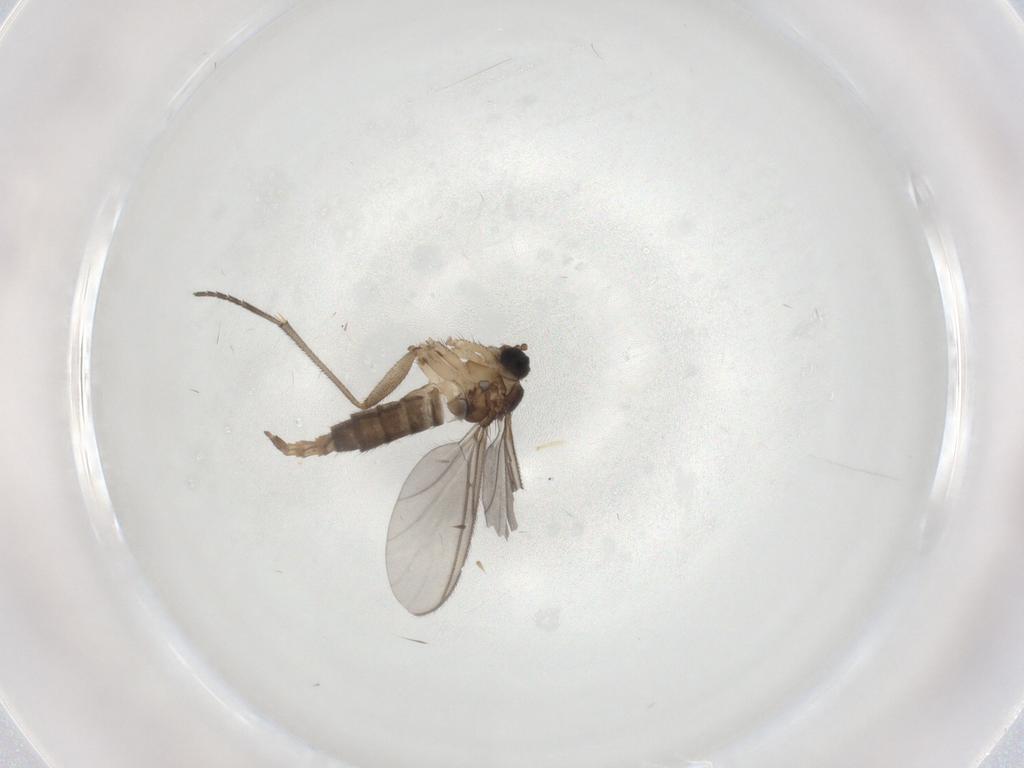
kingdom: Animalia
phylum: Arthropoda
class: Insecta
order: Diptera
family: Sciaridae
